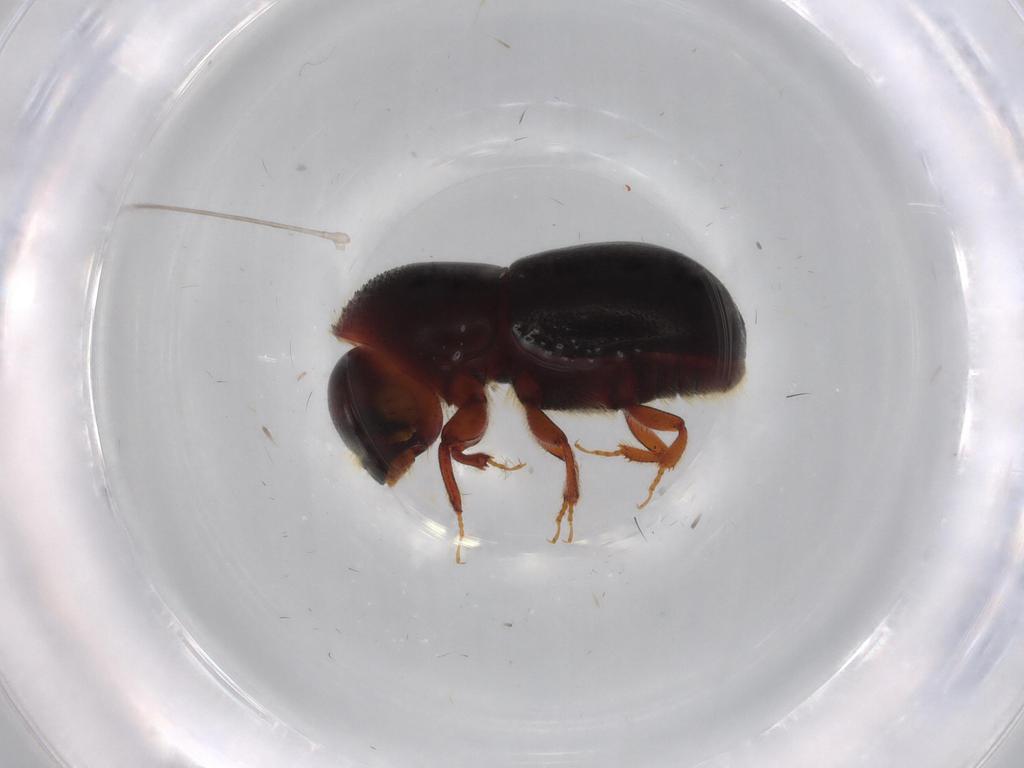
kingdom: Animalia
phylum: Arthropoda
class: Insecta
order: Coleoptera
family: Curculionidae
